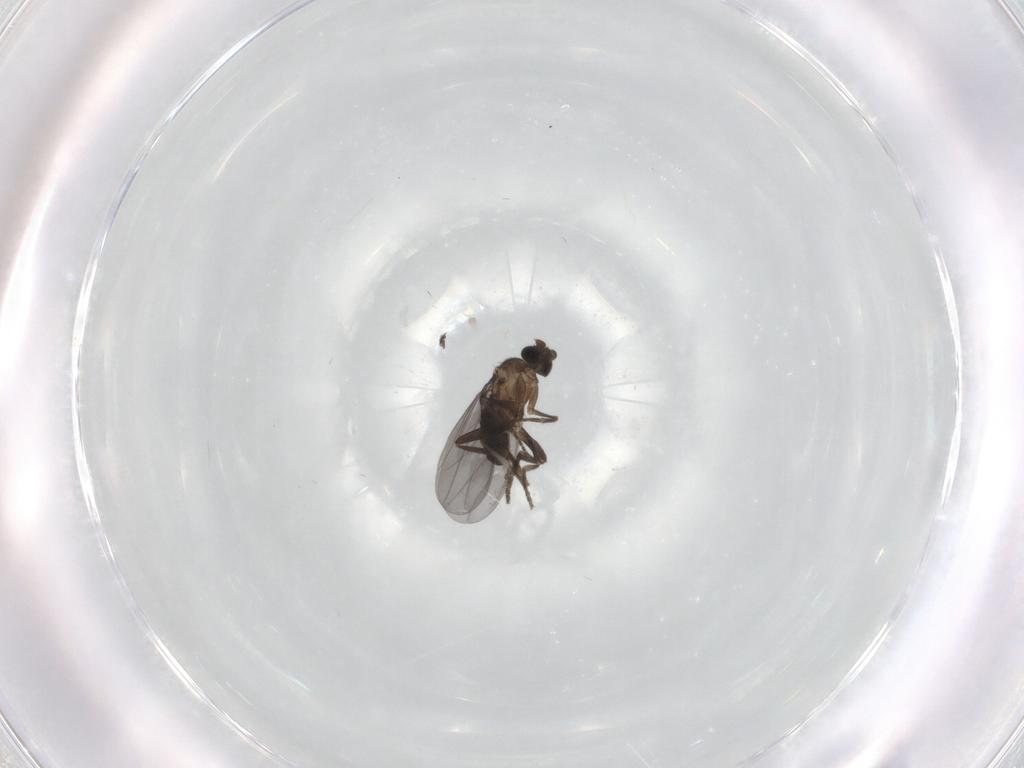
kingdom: Animalia
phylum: Arthropoda
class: Insecta
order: Diptera
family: Phoridae
